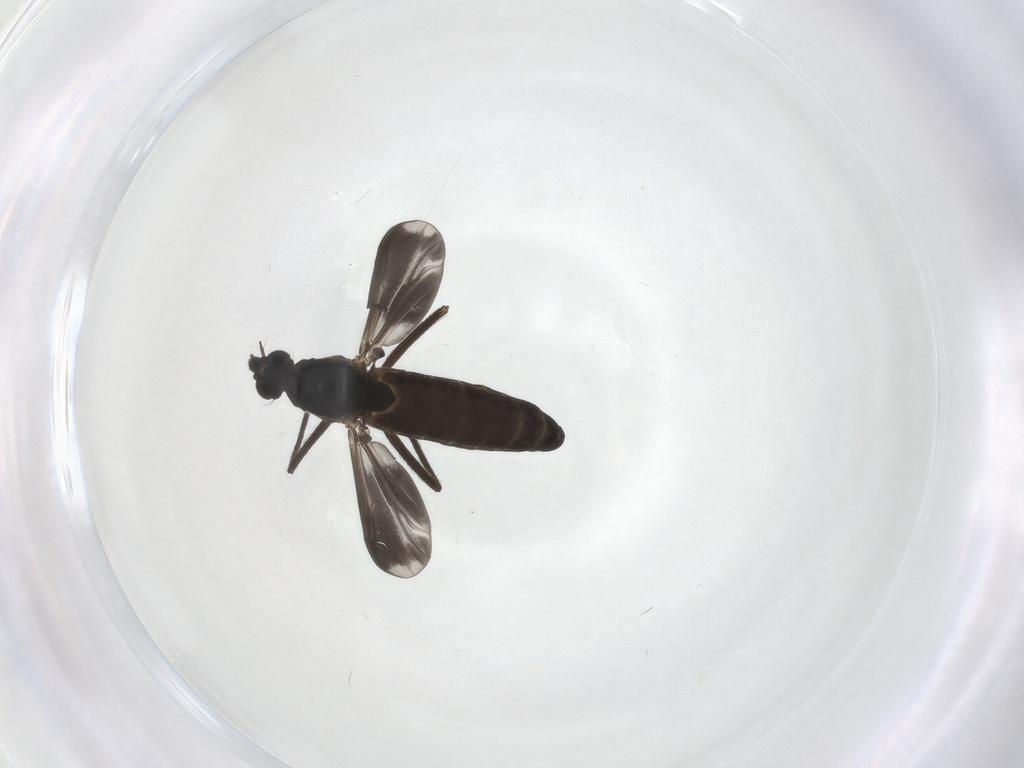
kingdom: Animalia
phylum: Arthropoda
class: Insecta
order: Diptera
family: Chironomidae
